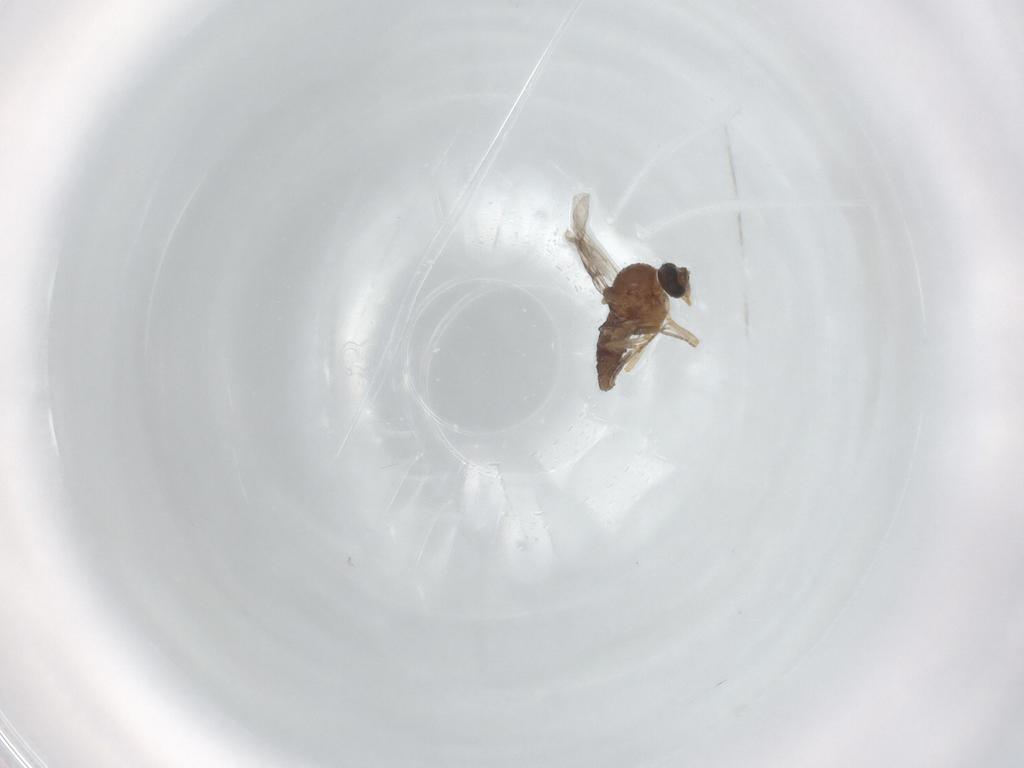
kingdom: Animalia
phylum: Arthropoda
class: Insecta
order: Diptera
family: Ceratopogonidae
